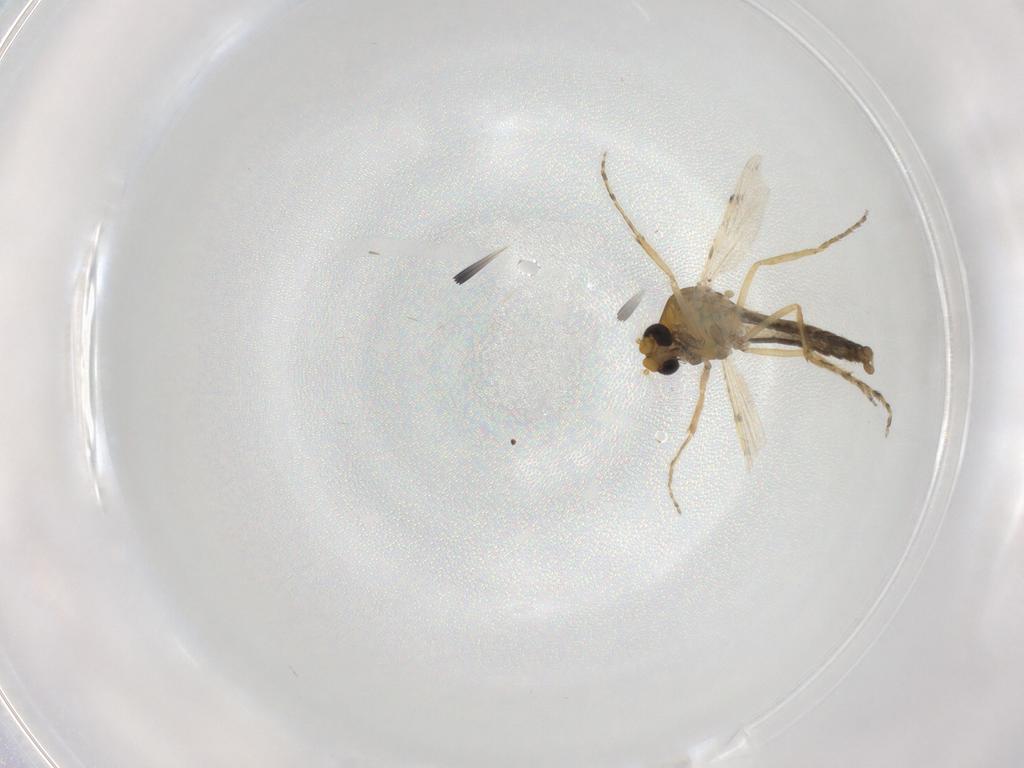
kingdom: Animalia
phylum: Arthropoda
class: Insecta
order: Diptera
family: Ceratopogonidae
